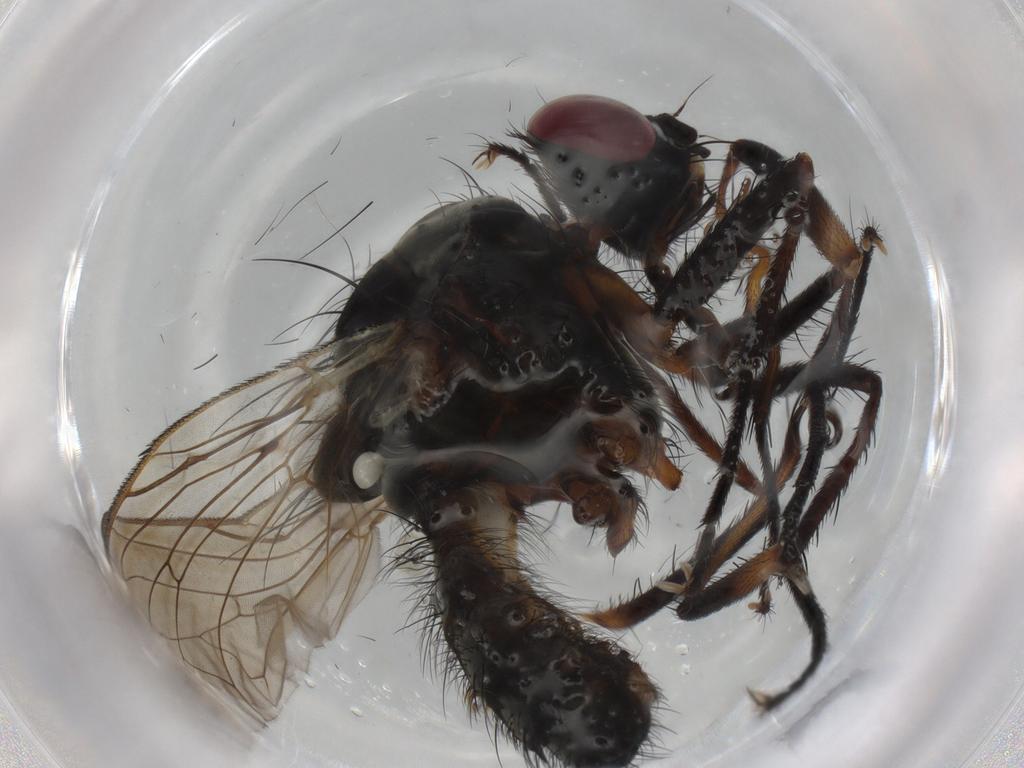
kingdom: Animalia
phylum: Arthropoda
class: Insecta
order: Diptera
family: Anthomyiidae
